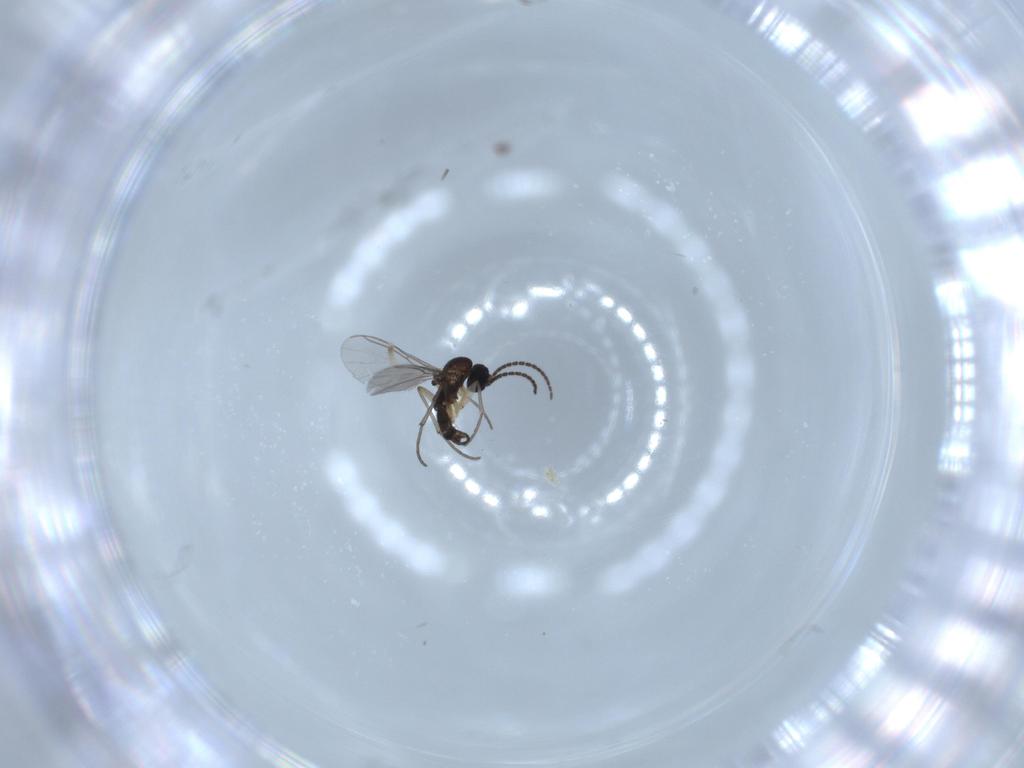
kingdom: Animalia
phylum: Arthropoda
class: Insecta
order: Diptera
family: Sciaridae
